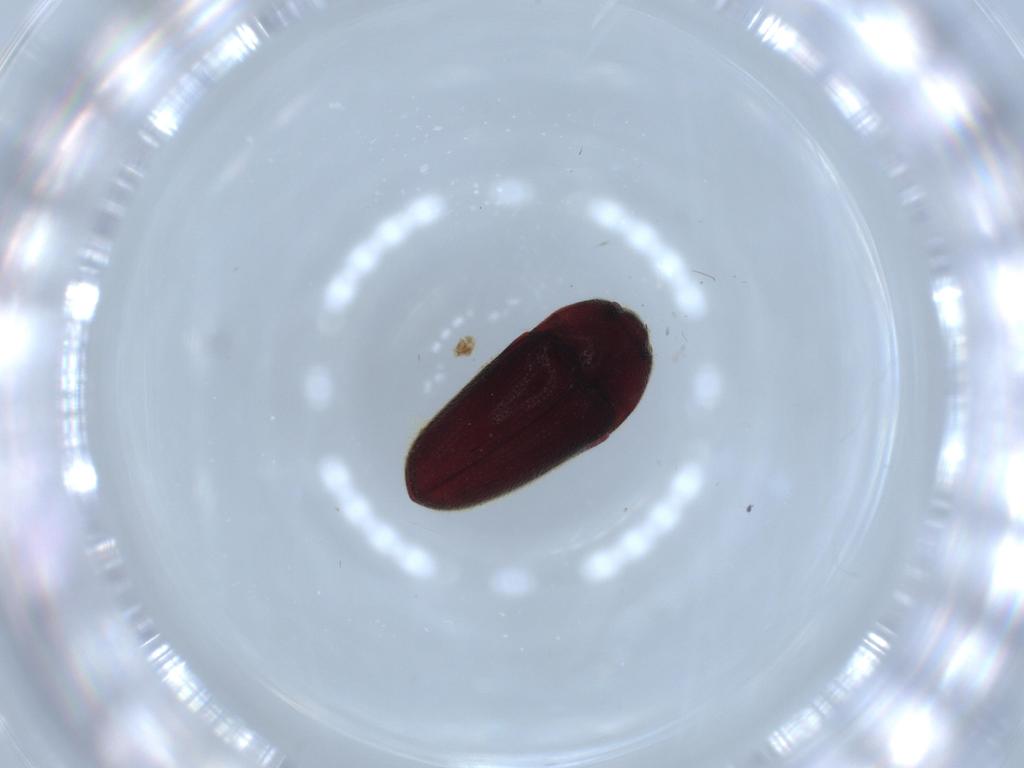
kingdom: Animalia
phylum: Arthropoda
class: Insecta
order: Coleoptera
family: Throscidae
